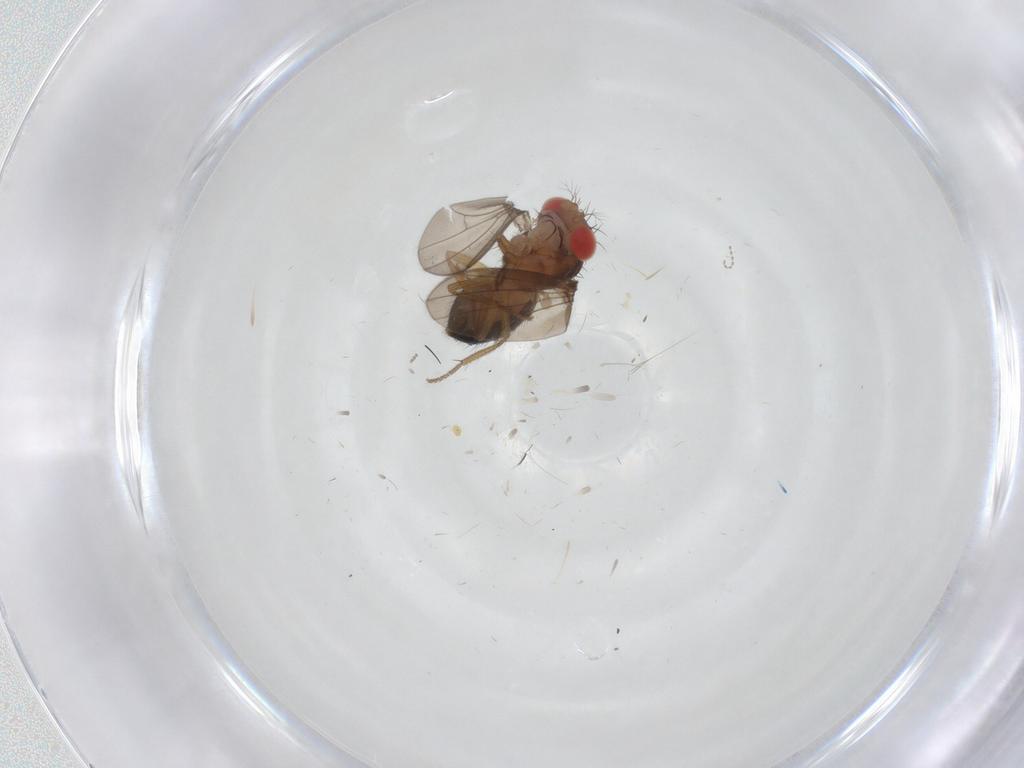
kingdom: Animalia
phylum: Arthropoda
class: Insecta
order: Diptera
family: Drosophilidae
